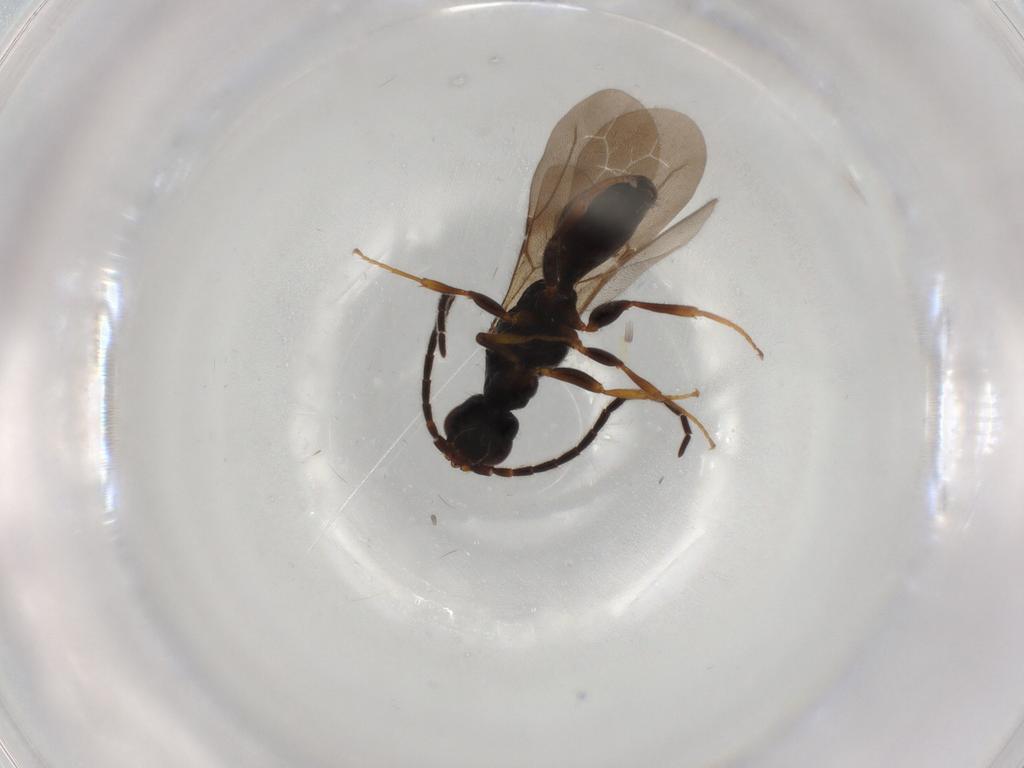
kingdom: Animalia
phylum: Arthropoda
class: Insecta
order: Hymenoptera
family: Bethylidae
